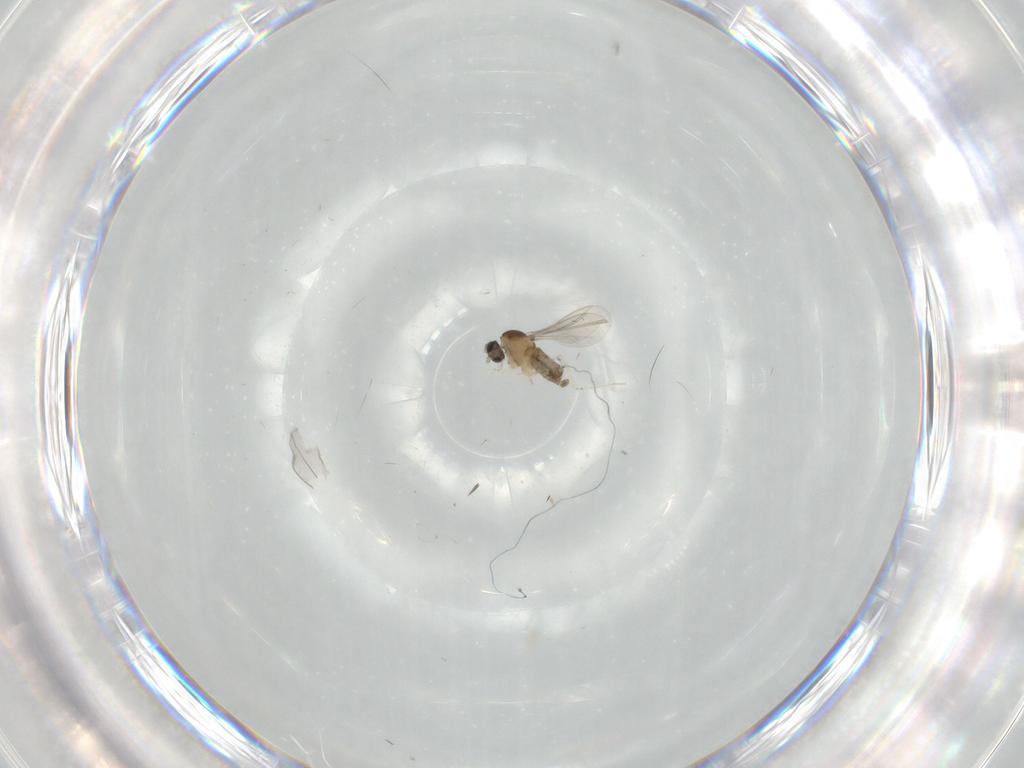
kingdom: Animalia
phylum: Arthropoda
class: Insecta
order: Diptera
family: Cecidomyiidae
